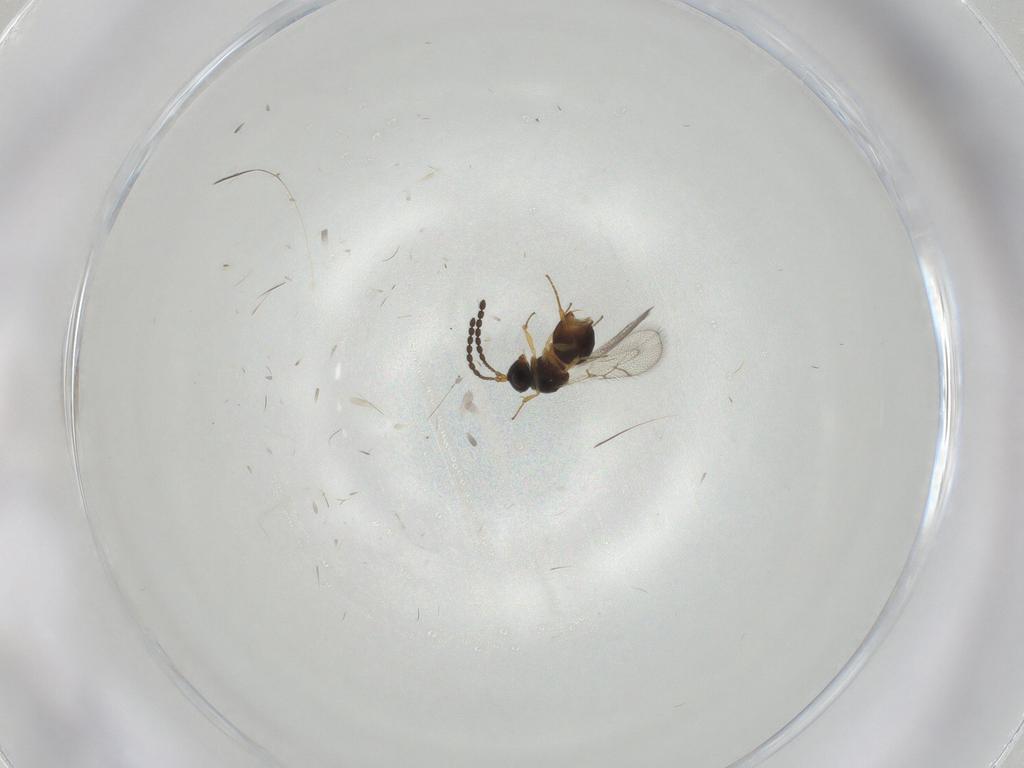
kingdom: Animalia
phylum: Arthropoda
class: Insecta
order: Hymenoptera
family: Figitidae
